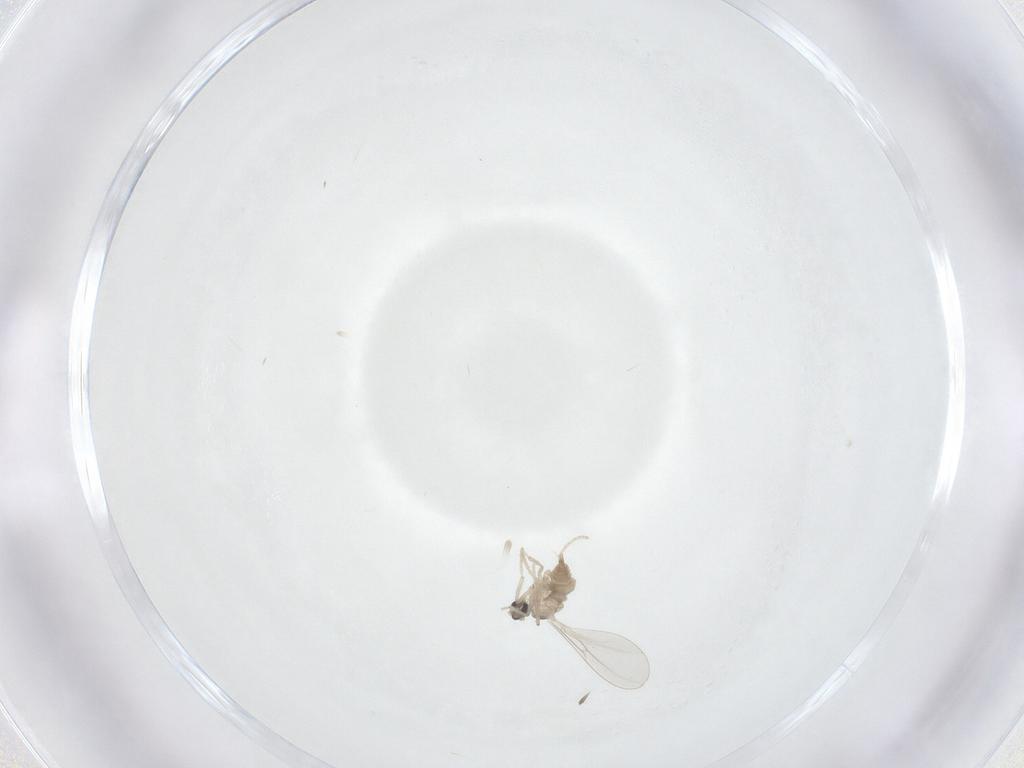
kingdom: Animalia
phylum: Arthropoda
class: Insecta
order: Diptera
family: Cecidomyiidae
